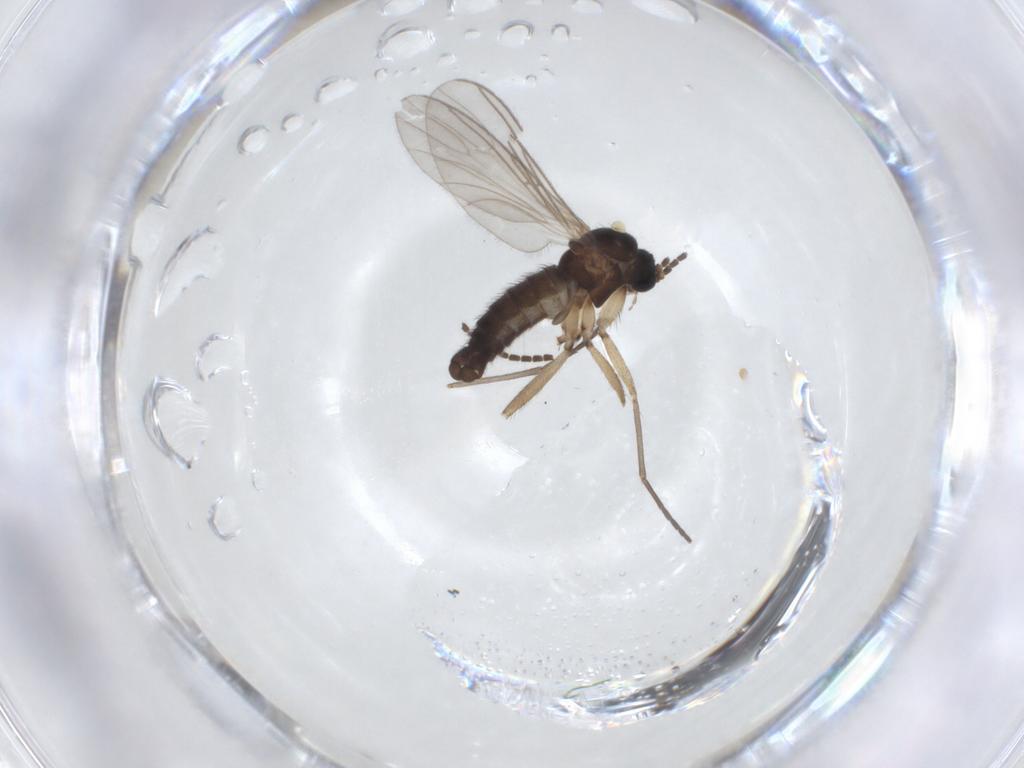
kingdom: Animalia
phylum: Arthropoda
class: Insecta
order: Diptera
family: Sciaridae
